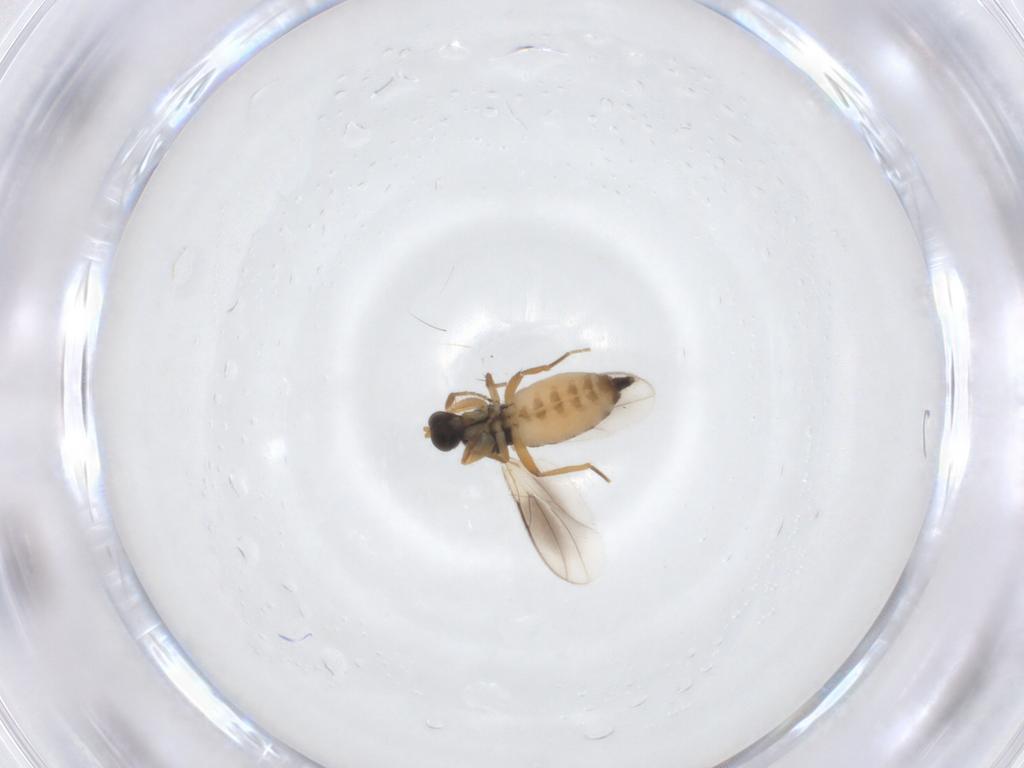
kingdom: Animalia
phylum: Arthropoda
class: Insecta
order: Diptera
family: Hybotidae
